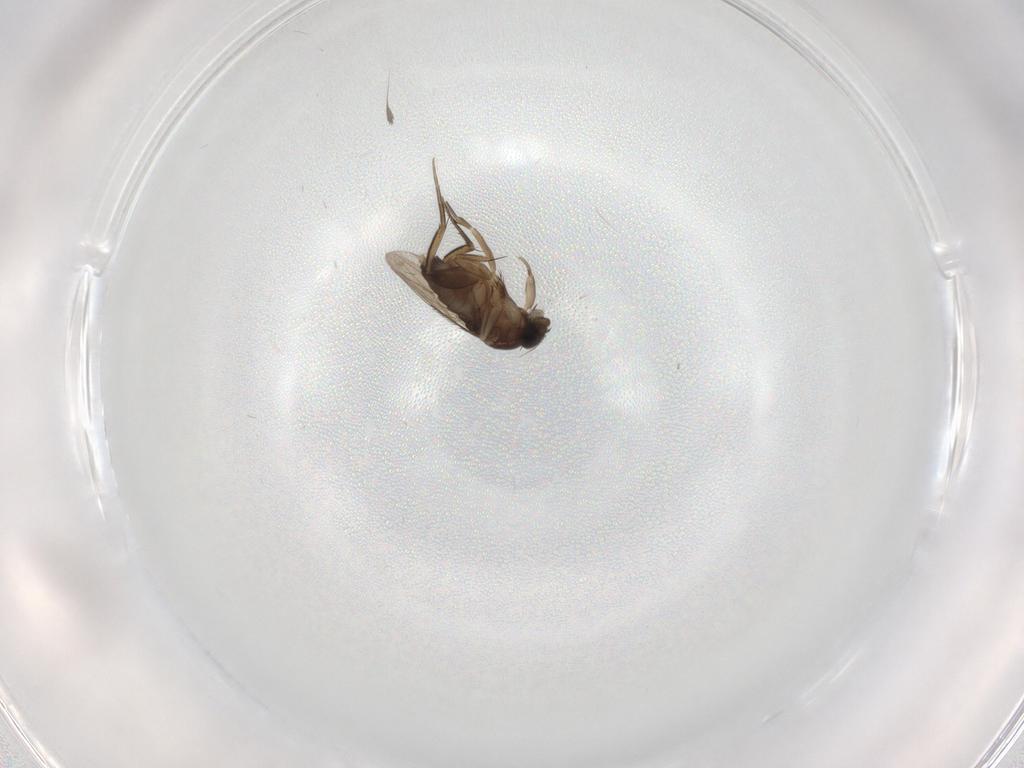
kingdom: Animalia
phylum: Arthropoda
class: Insecta
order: Diptera
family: Phoridae
